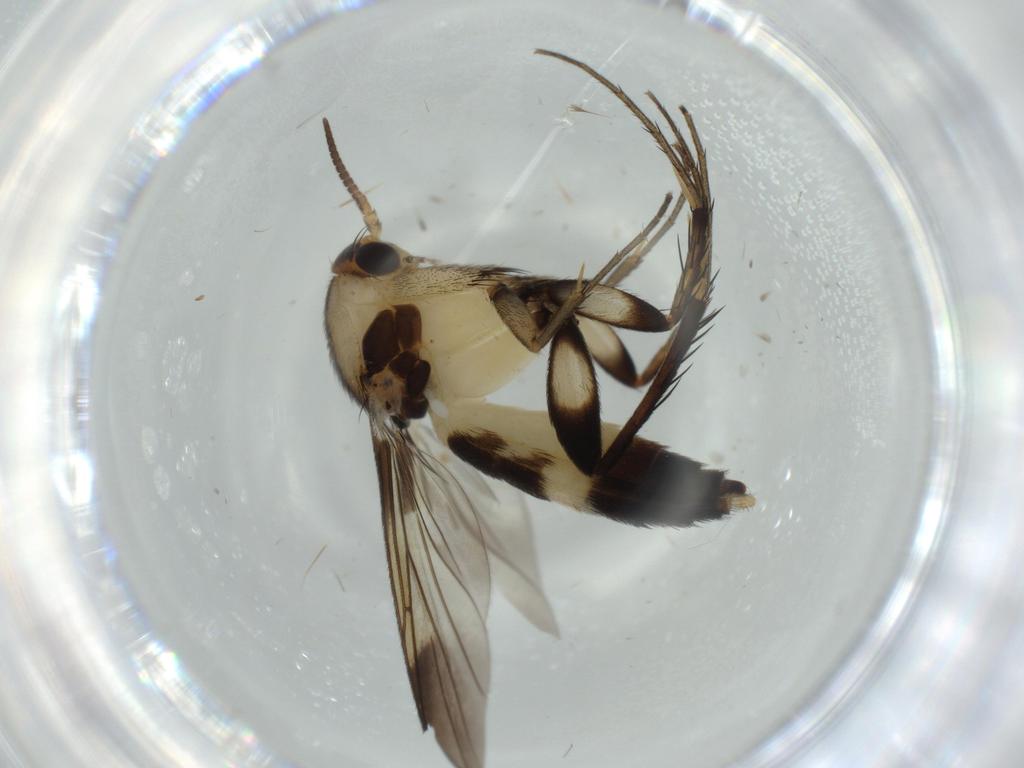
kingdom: Animalia
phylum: Arthropoda
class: Insecta
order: Diptera
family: Mycetophilidae
